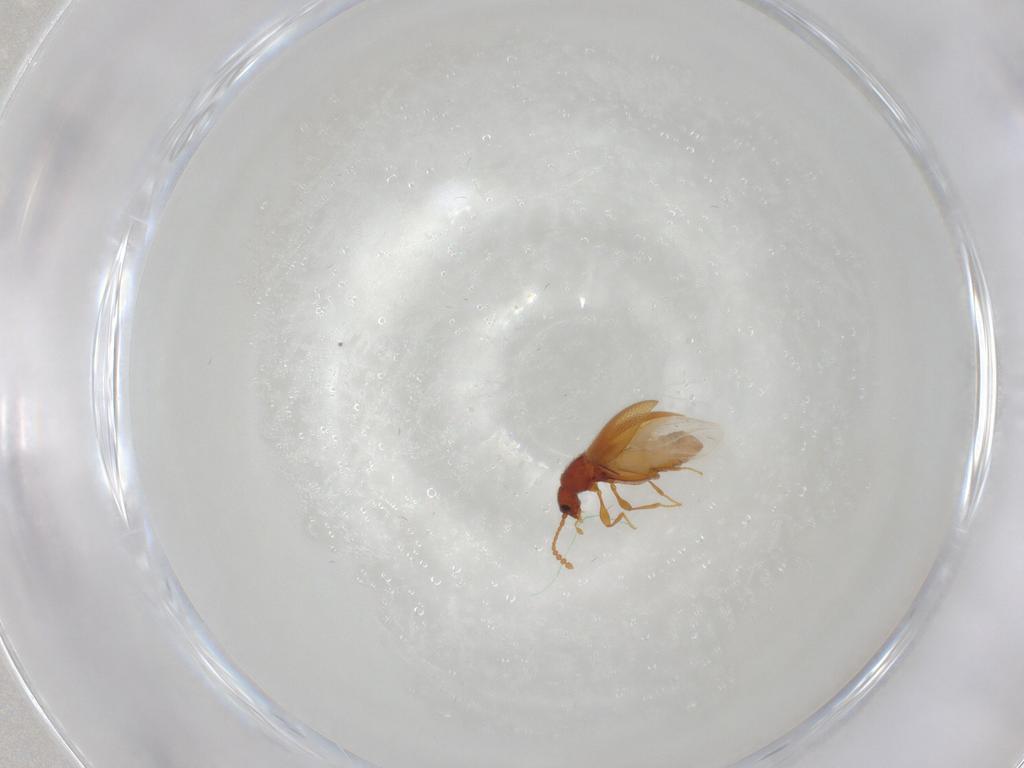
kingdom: Animalia
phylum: Arthropoda
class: Insecta
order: Coleoptera
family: Staphylinidae
